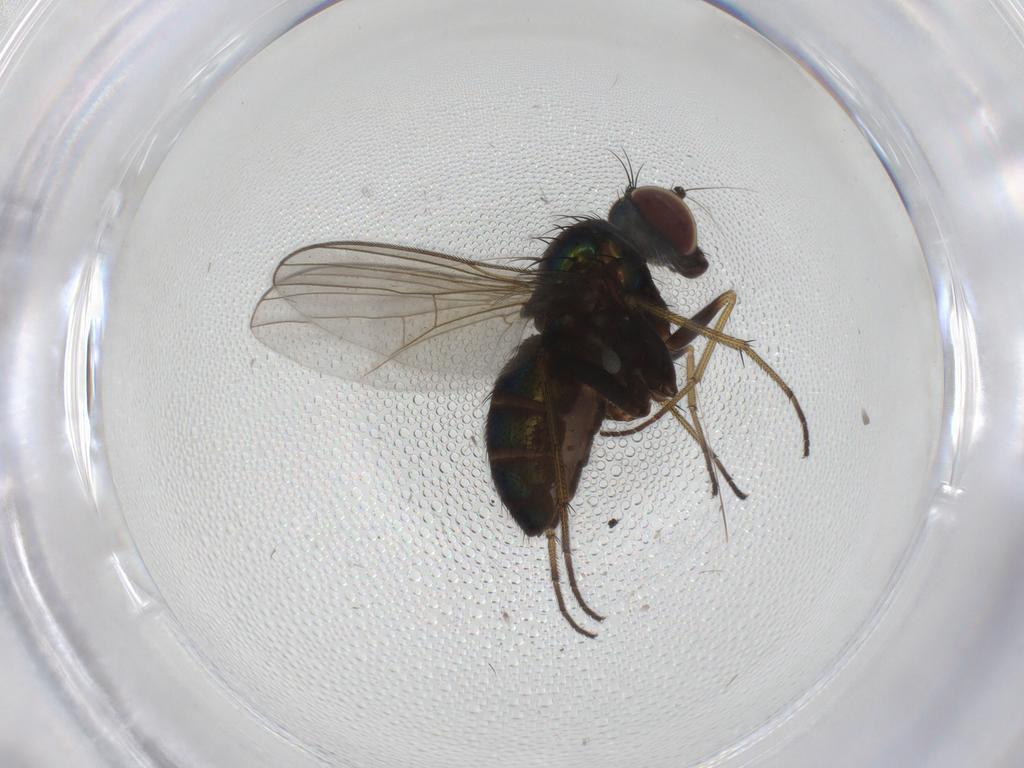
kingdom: Animalia
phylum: Arthropoda
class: Insecta
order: Diptera
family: Dolichopodidae
